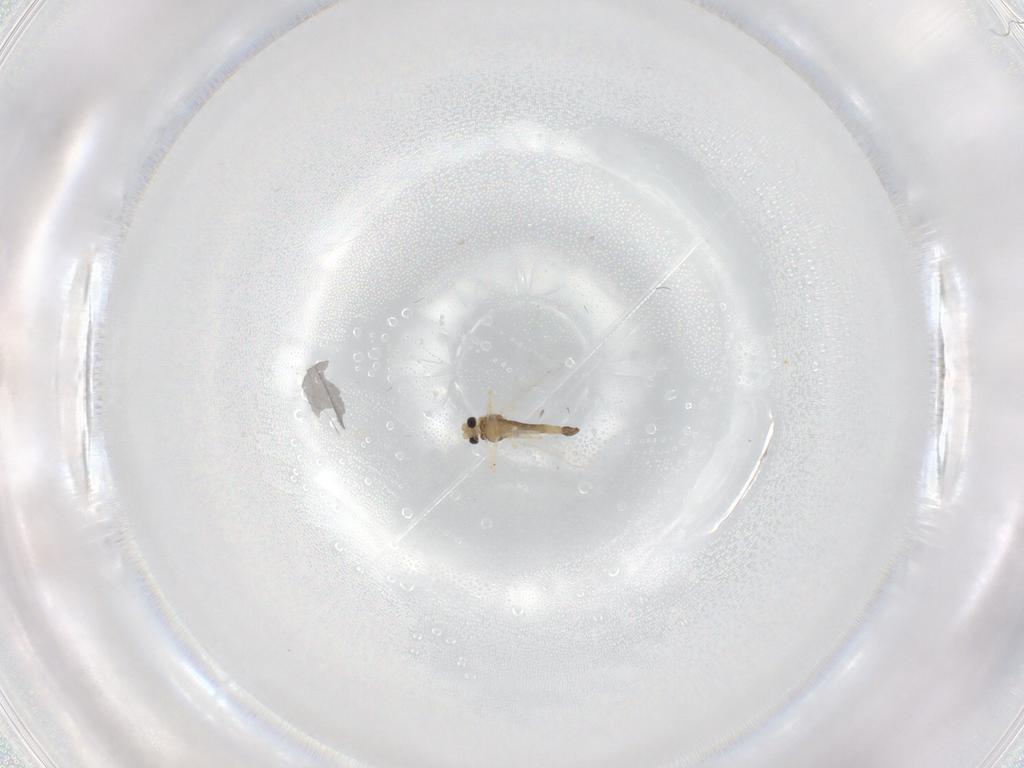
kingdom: Animalia
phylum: Arthropoda
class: Insecta
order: Diptera
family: Chironomidae
